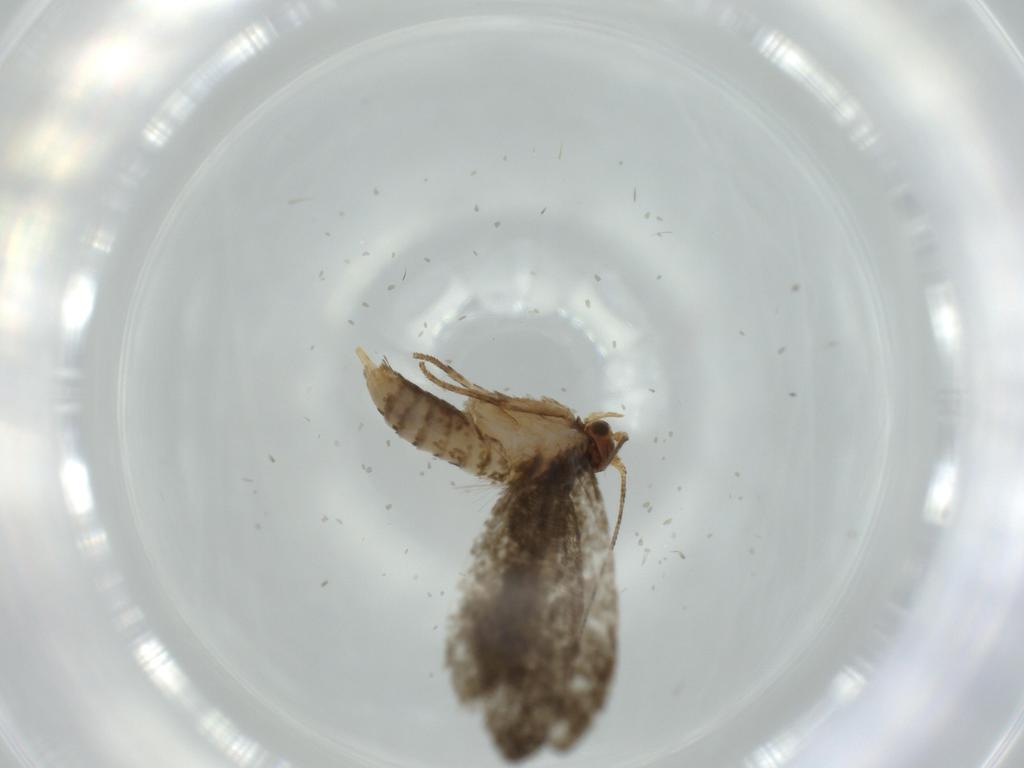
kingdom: Animalia
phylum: Arthropoda
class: Insecta
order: Lepidoptera
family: Tineidae
